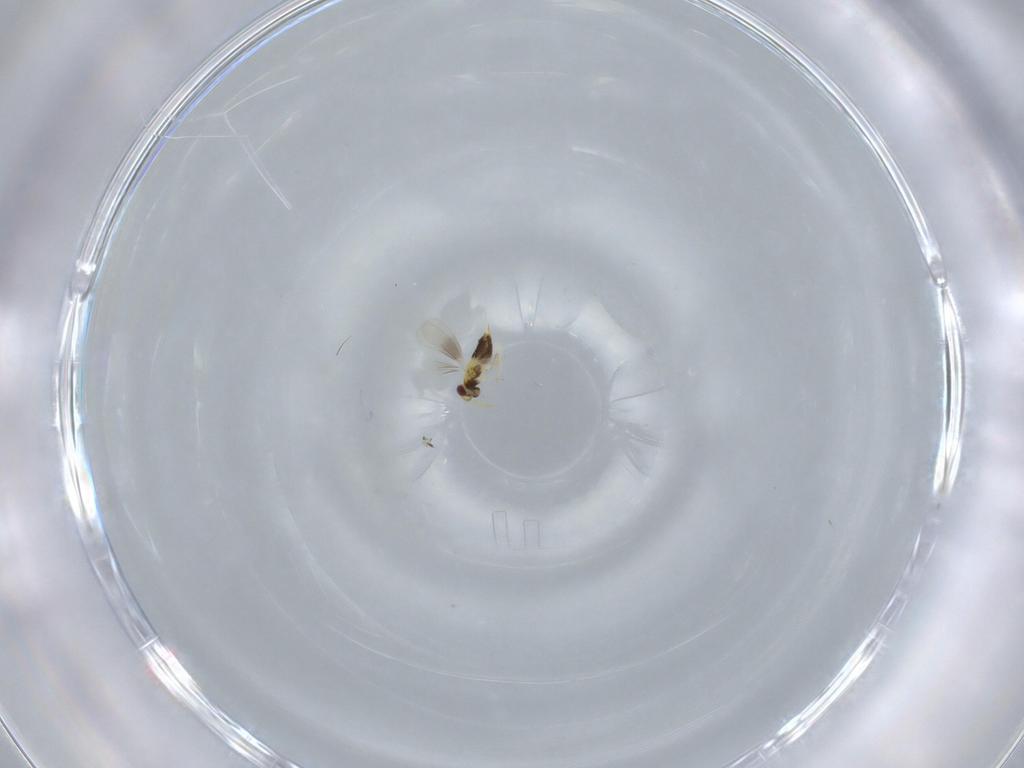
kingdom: Animalia
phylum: Arthropoda
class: Insecta
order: Hymenoptera
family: Aphelinidae
